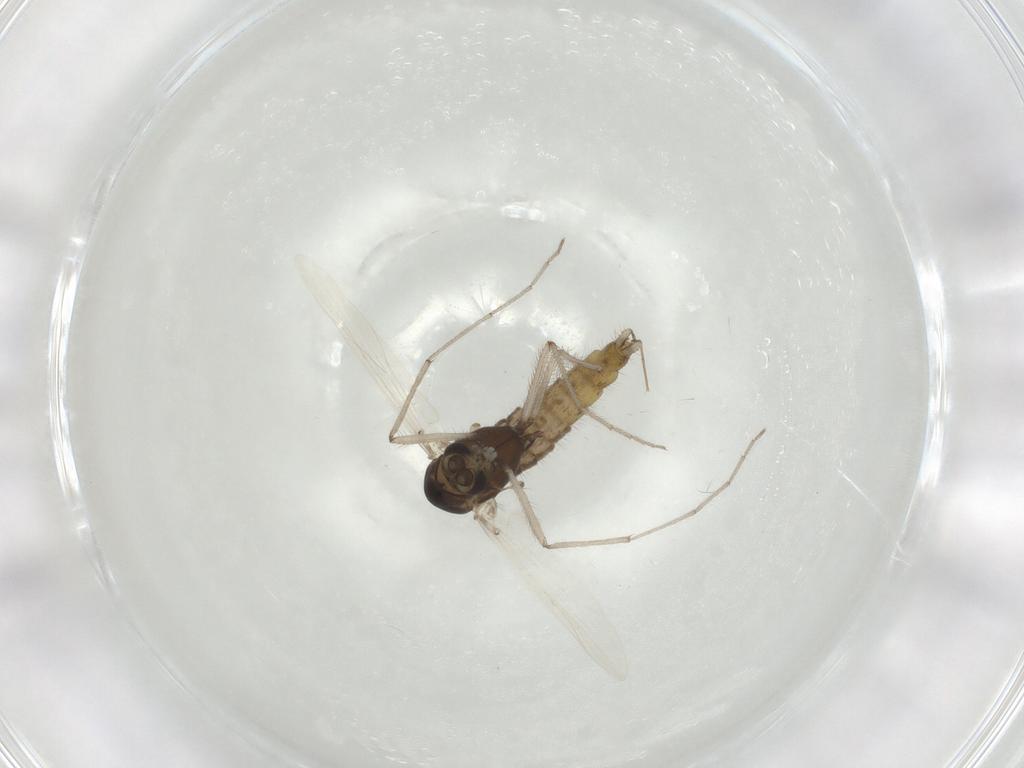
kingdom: Animalia
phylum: Arthropoda
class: Insecta
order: Diptera
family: Chironomidae
